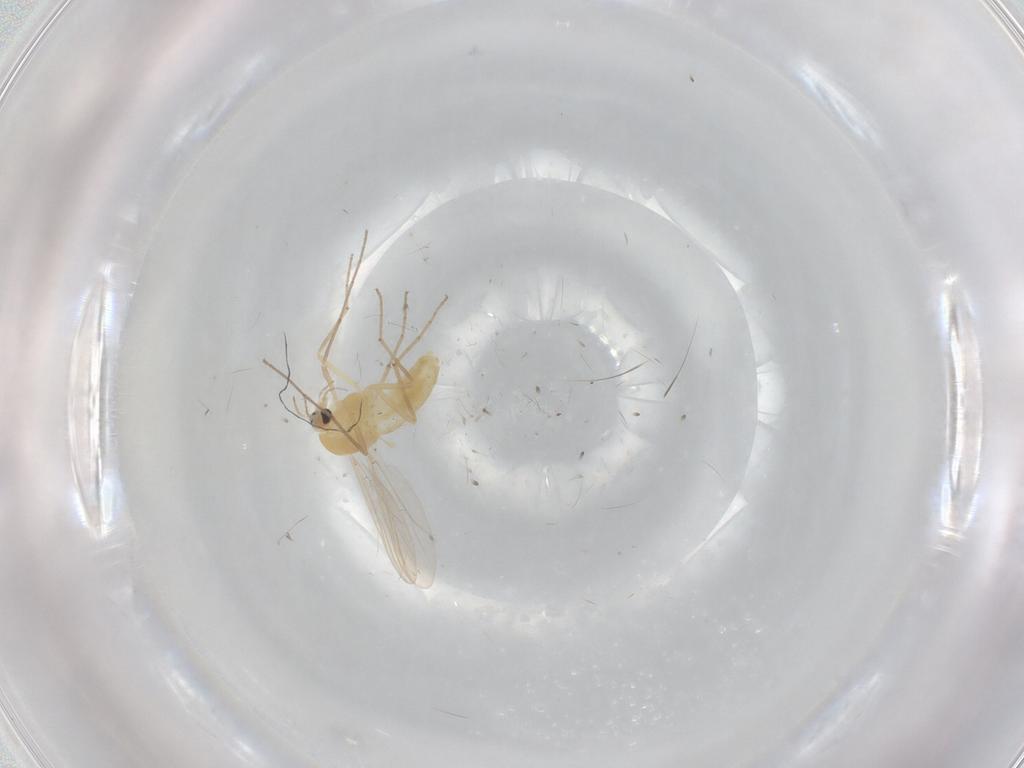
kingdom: Animalia
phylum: Arthropoda
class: Insecta
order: Diptera
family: Chironomidae
